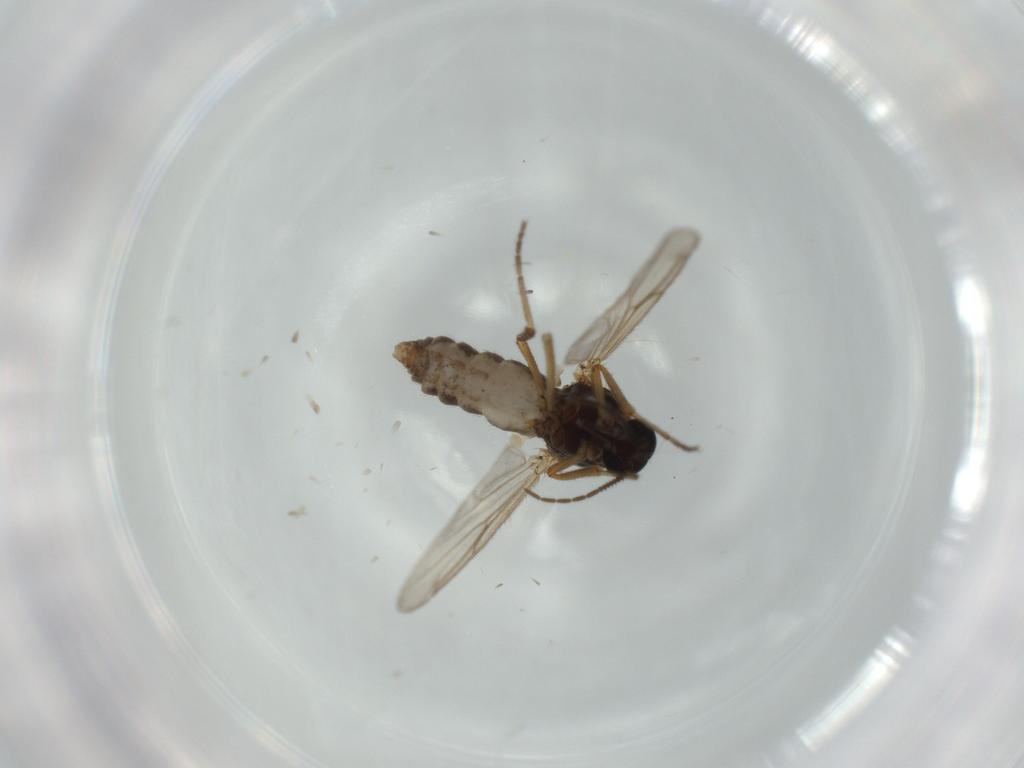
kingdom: Animalia
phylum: Arthropoda
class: Insecta
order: Diptera
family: Ceratopogonidae
